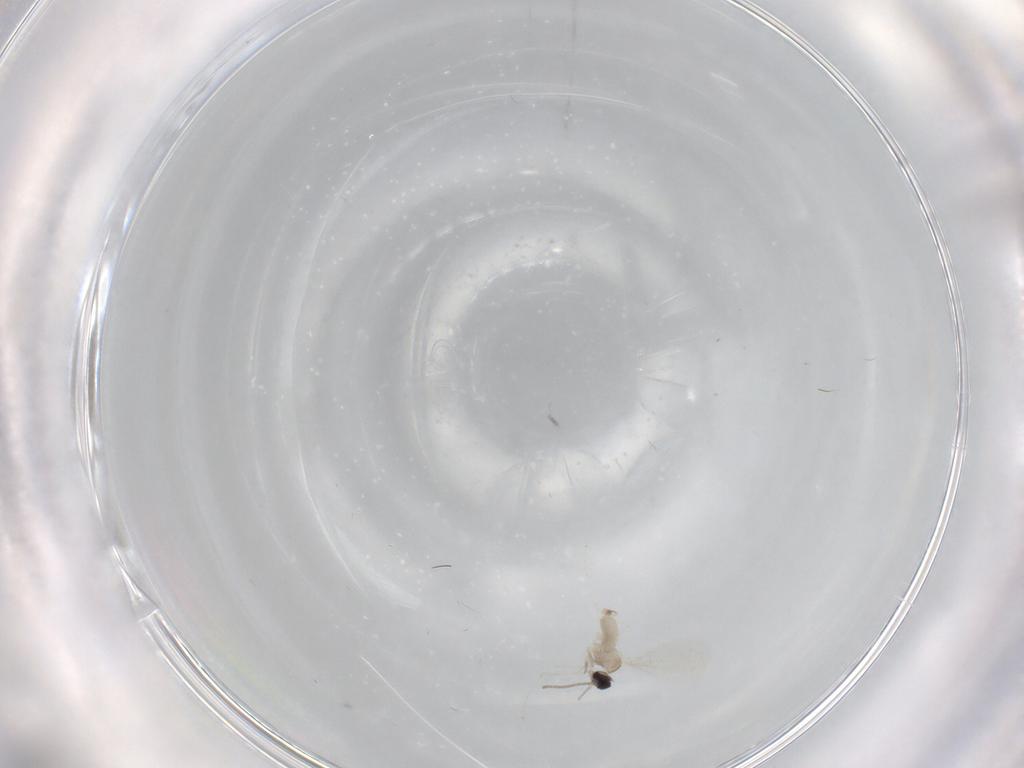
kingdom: Animalia
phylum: Arthropoda
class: Insecta
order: Diptera
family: Cecidomyiidae
